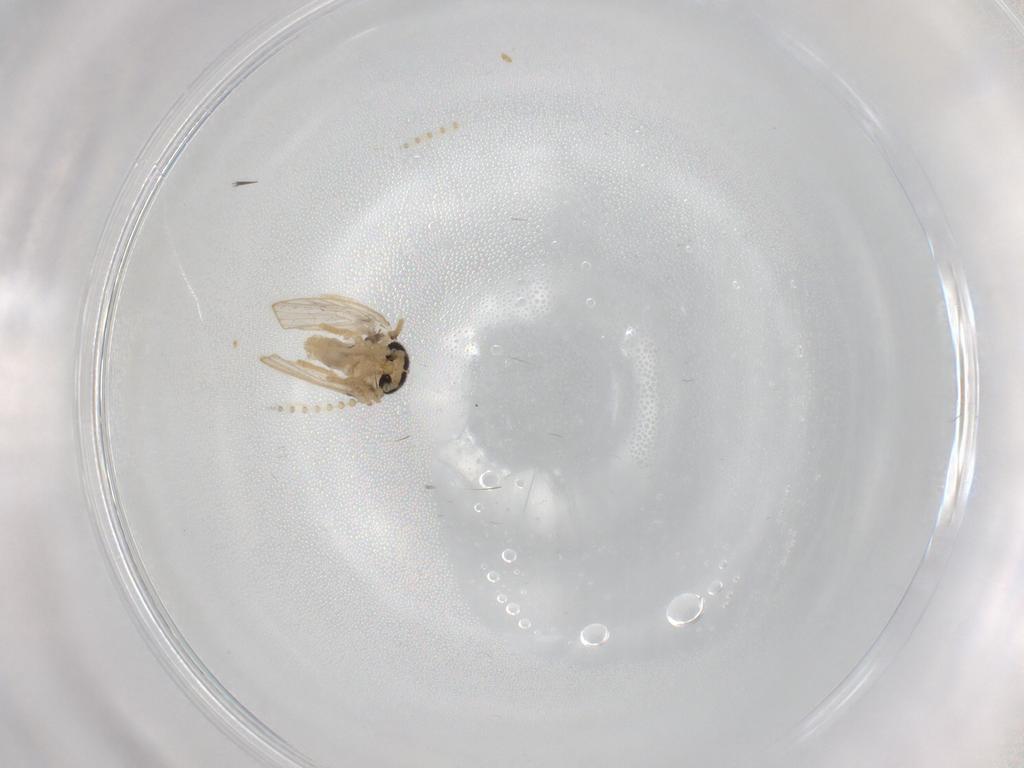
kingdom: Animalia
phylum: Arthropoda
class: Insecta
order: Diptera
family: Psychodidae
